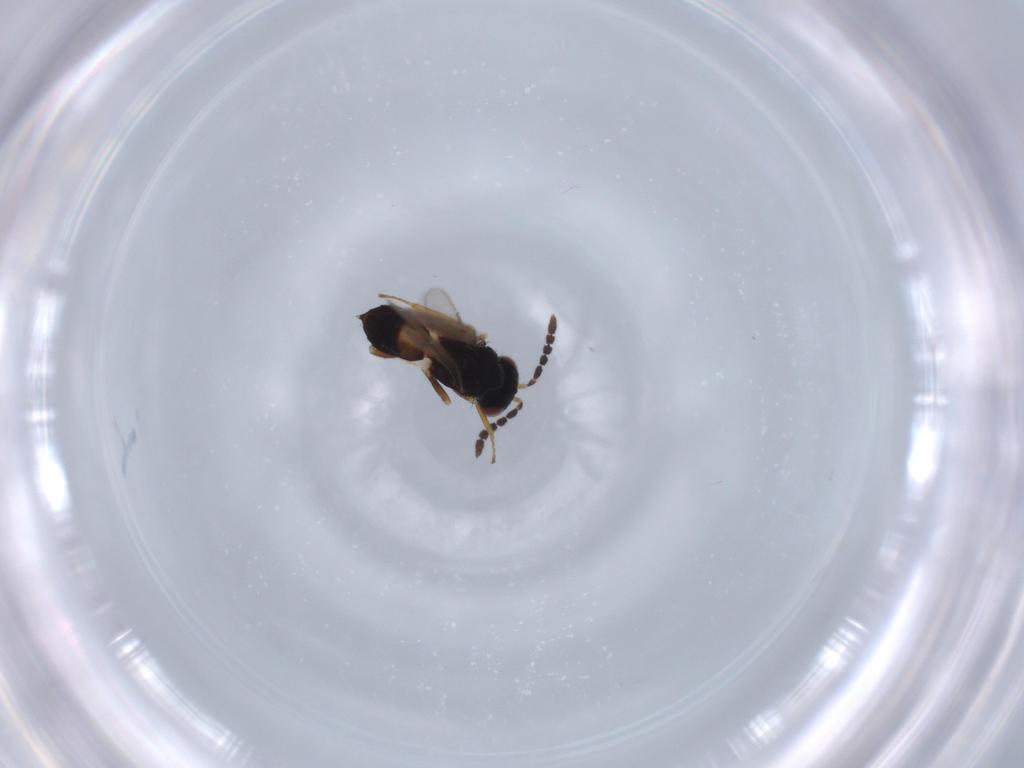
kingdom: Animalia
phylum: Arthropoda
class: Insecta
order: Hymenoptera
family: Eulophidae
